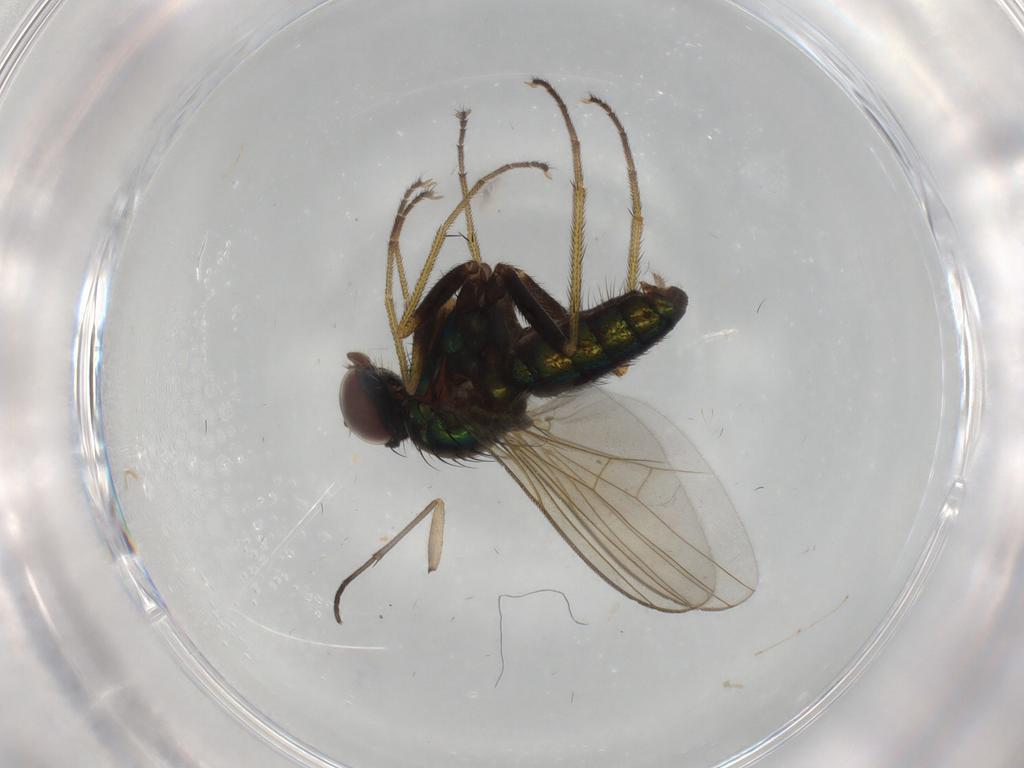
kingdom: Animalia
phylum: Arthropoda
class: Insecta
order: Diptera
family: Dolichopodidae
